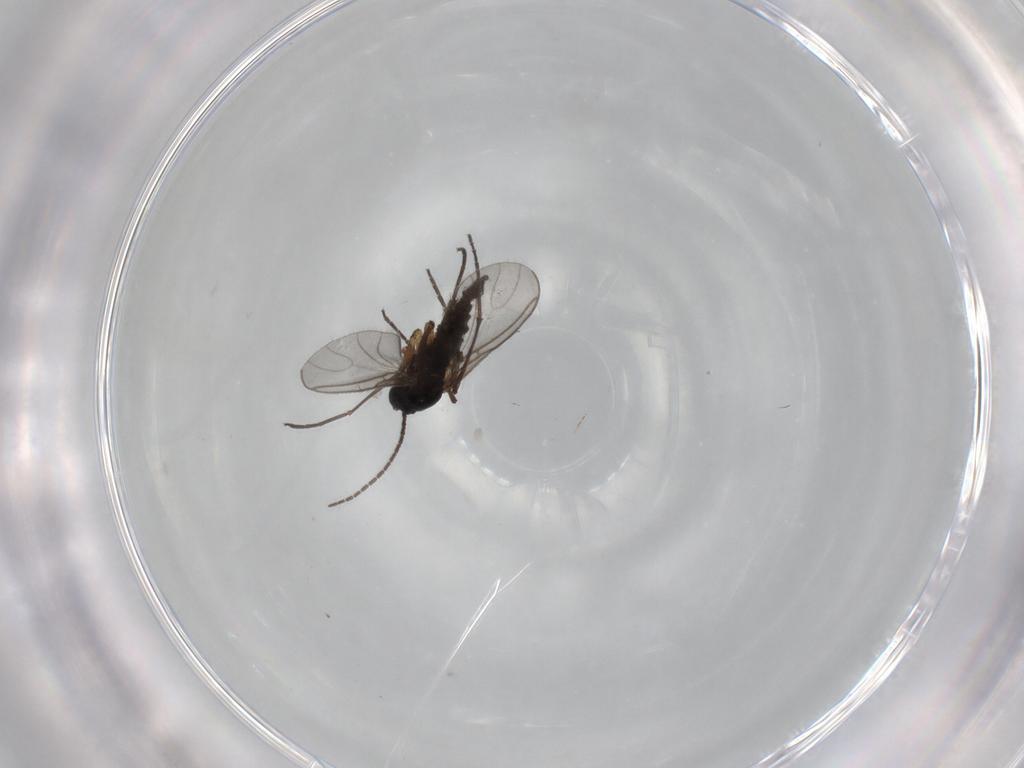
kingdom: Animalia
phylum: Arthropoda
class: Insecta
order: Diptera
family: Sciaridae
